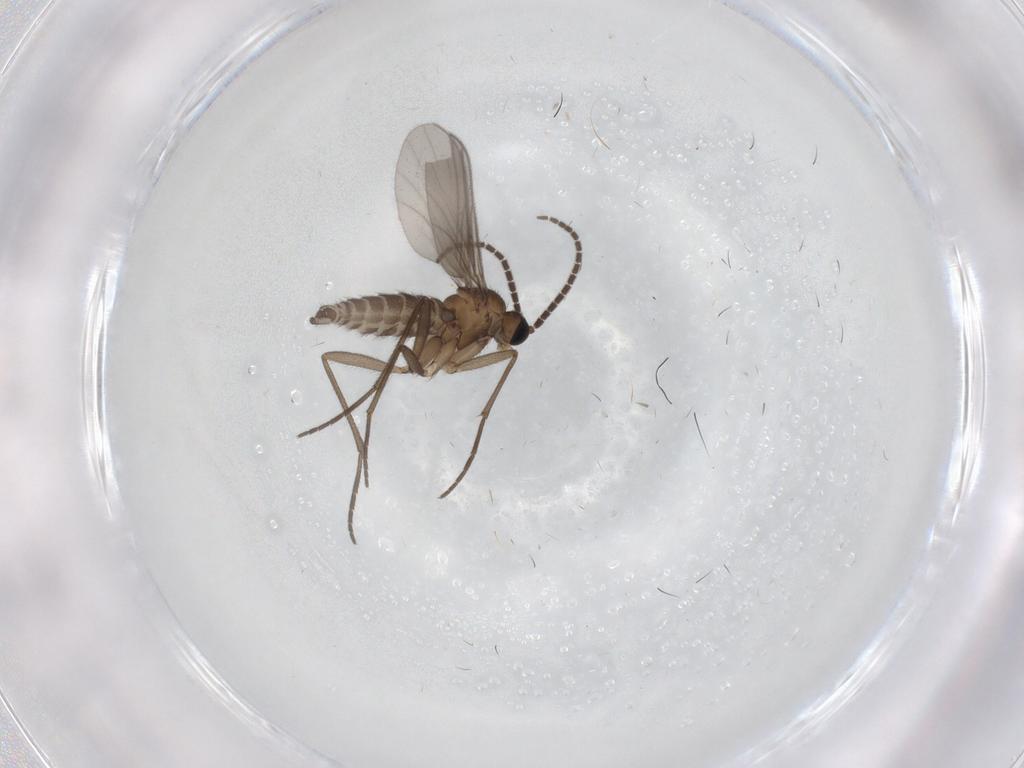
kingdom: Animalia
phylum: Arthropoda
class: Insecta
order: Diptera
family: Sciaridae
